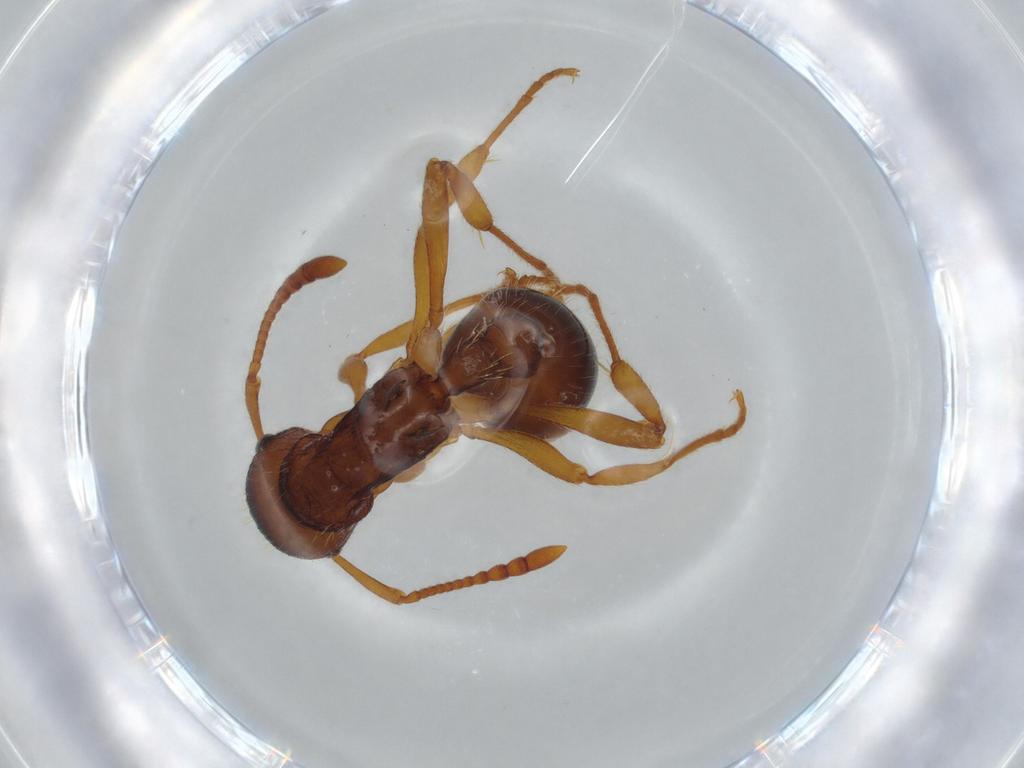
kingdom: Animalia
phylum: Arthropoda
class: Insecta
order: Hymenoptera
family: Formicidae
